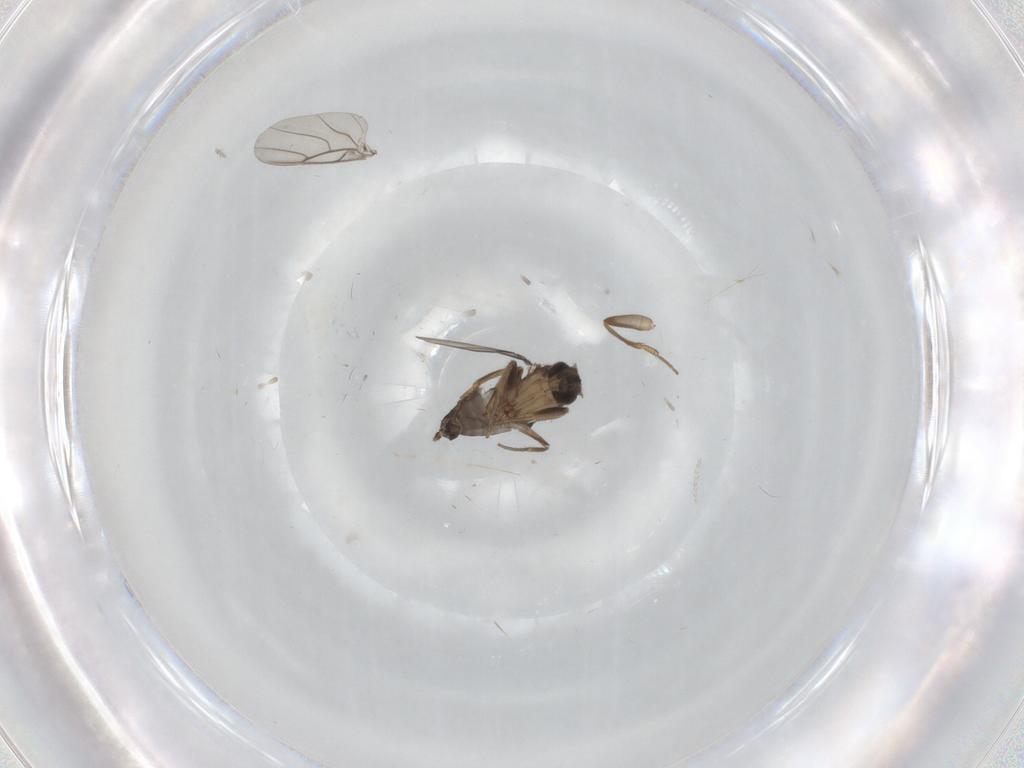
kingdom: Animalia
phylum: Arthropoda
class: Insecta
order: Diptera
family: Phoridae
